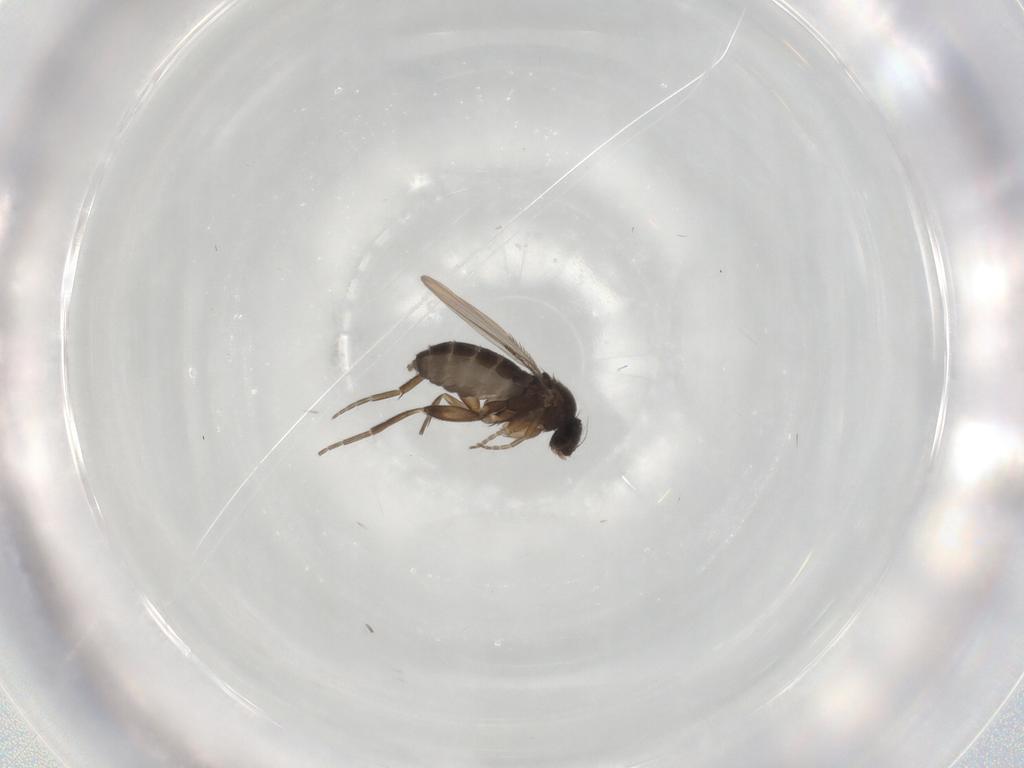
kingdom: Animalia
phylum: Arthropoda
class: Insecta
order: Diptera
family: Phoridae
